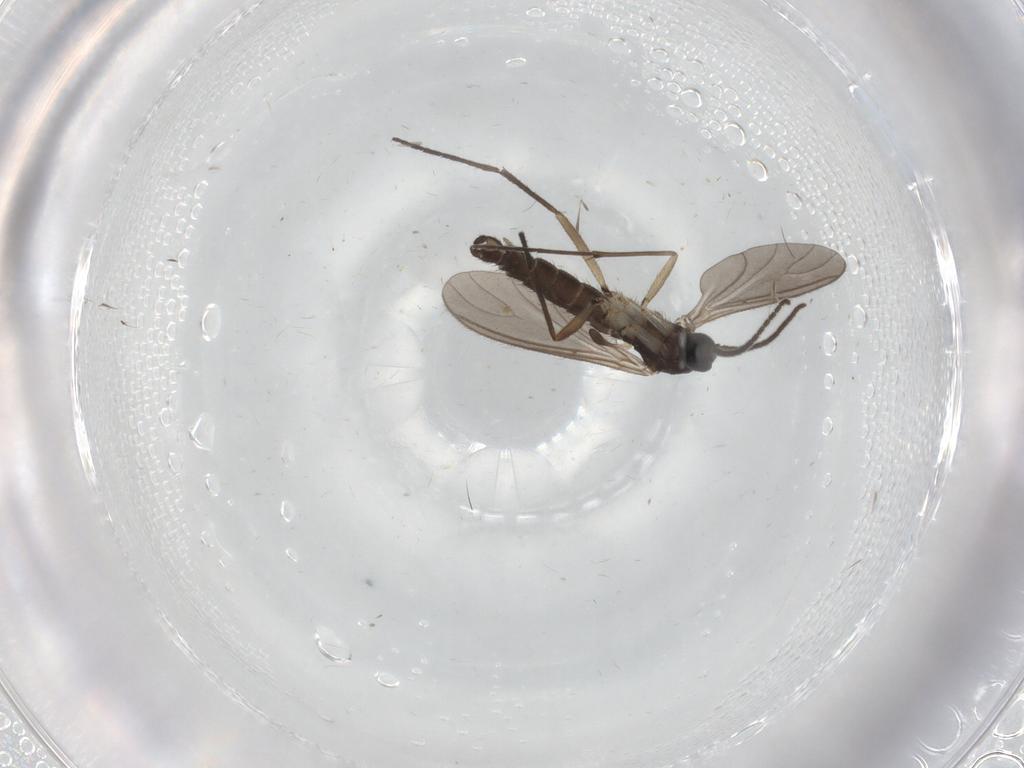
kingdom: Animalia
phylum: Arthropoda
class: Insecta
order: Diptera
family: Sciaridae
